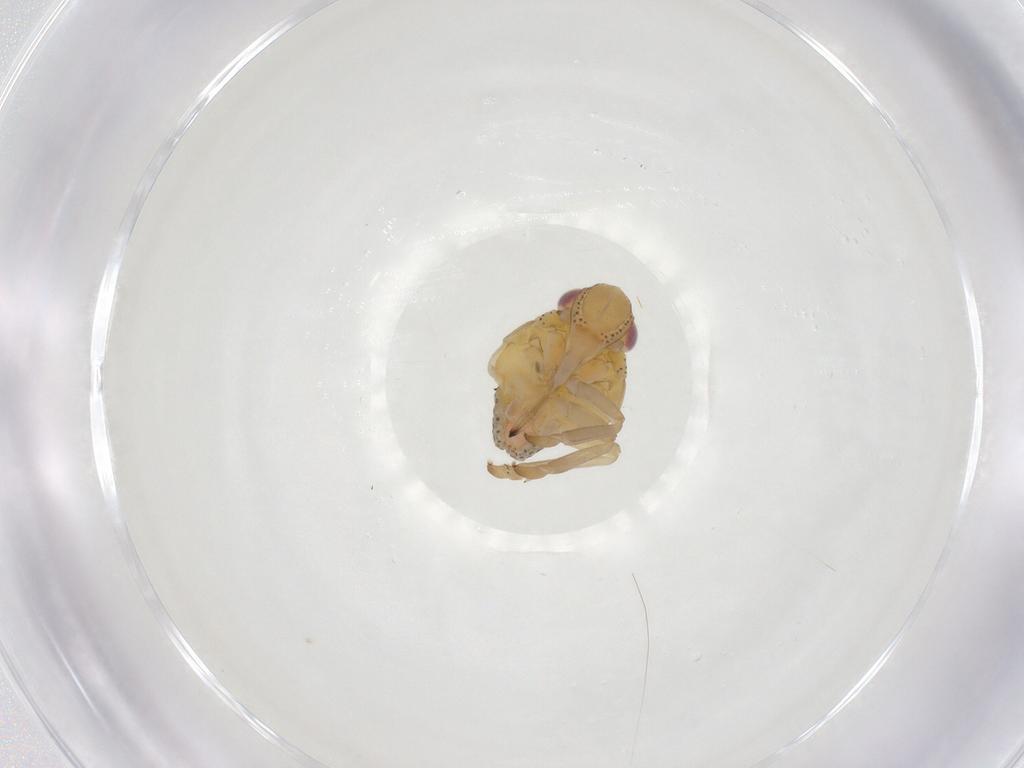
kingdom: Animalia
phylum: Arthropoda
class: Insecta
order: Hemiptera
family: Tropiduchidae
